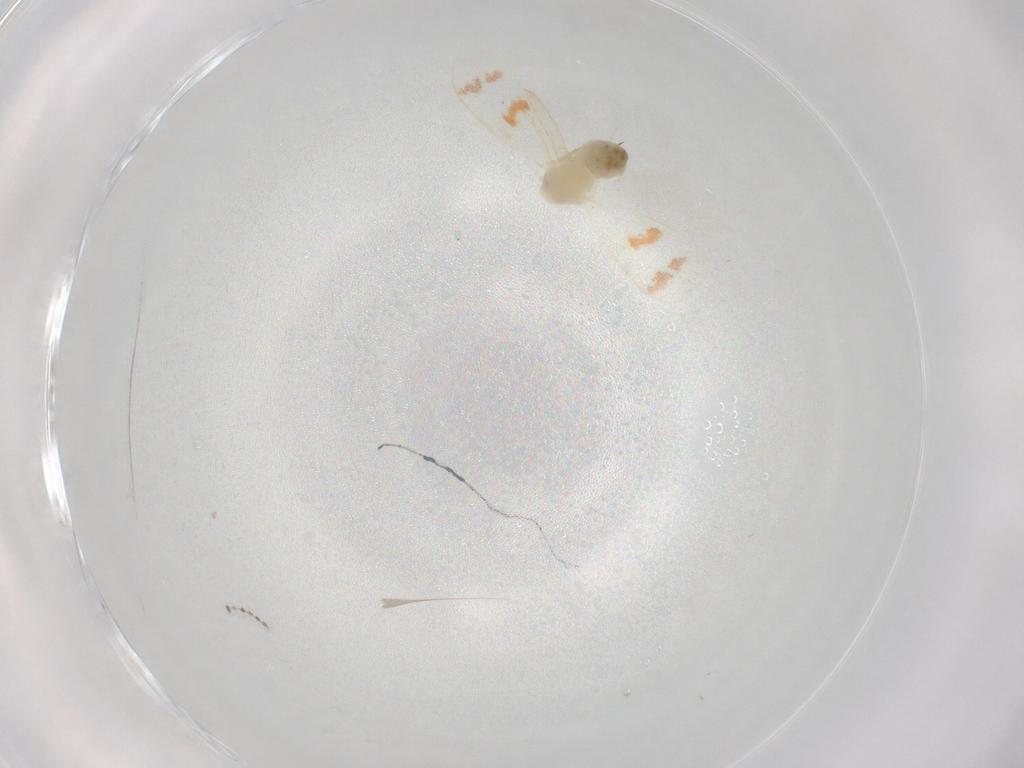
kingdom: Animalia
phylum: Arthropoda
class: Insecta
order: Hemiptera
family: Aleyrodidae
